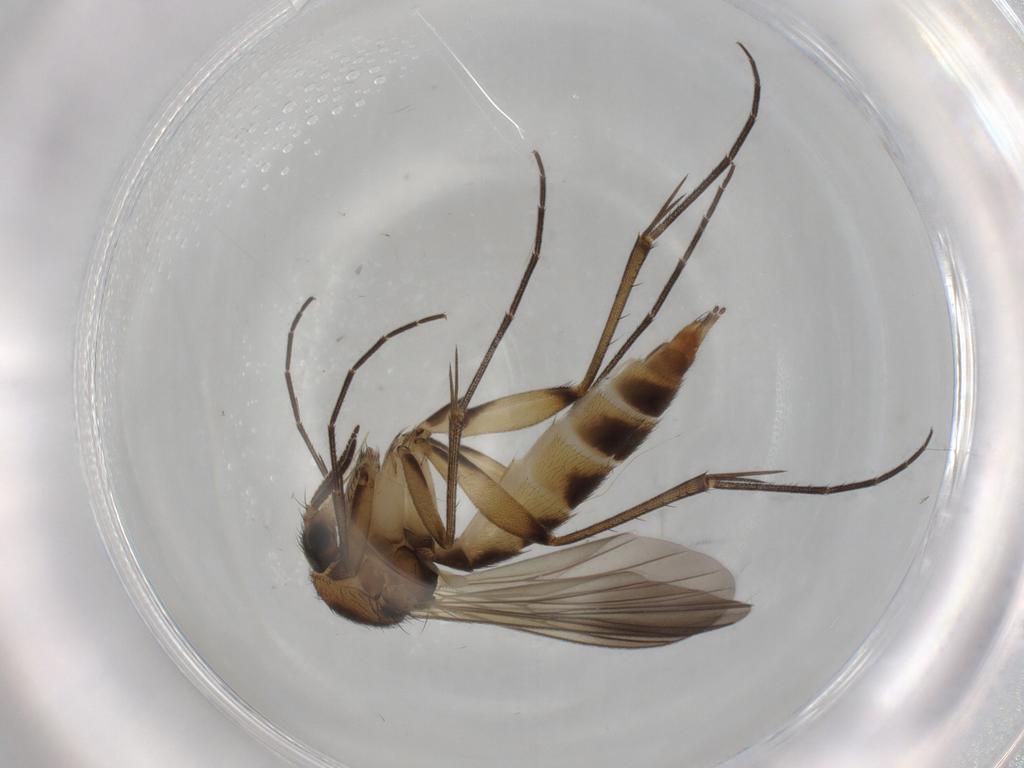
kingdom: Animalia
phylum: Arthropoda
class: Insecta
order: Diptera
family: Mycetophilidae
